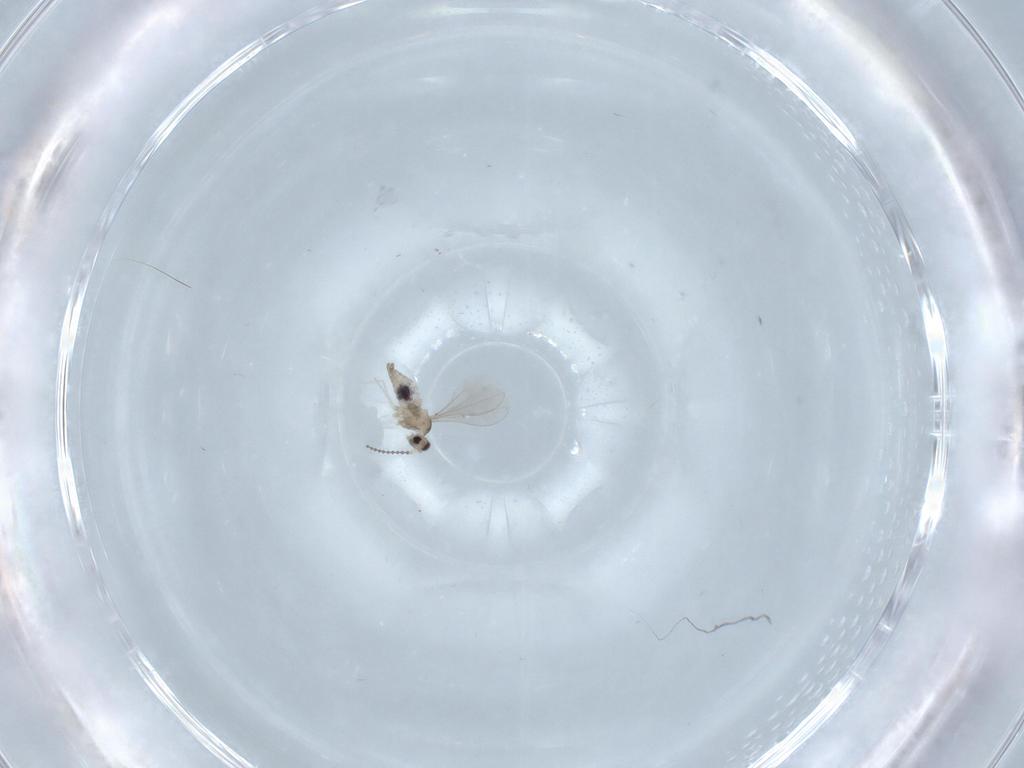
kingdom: Animalia
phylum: Arthropoda
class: Insecta
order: Diptera
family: Cecidomyiidae
